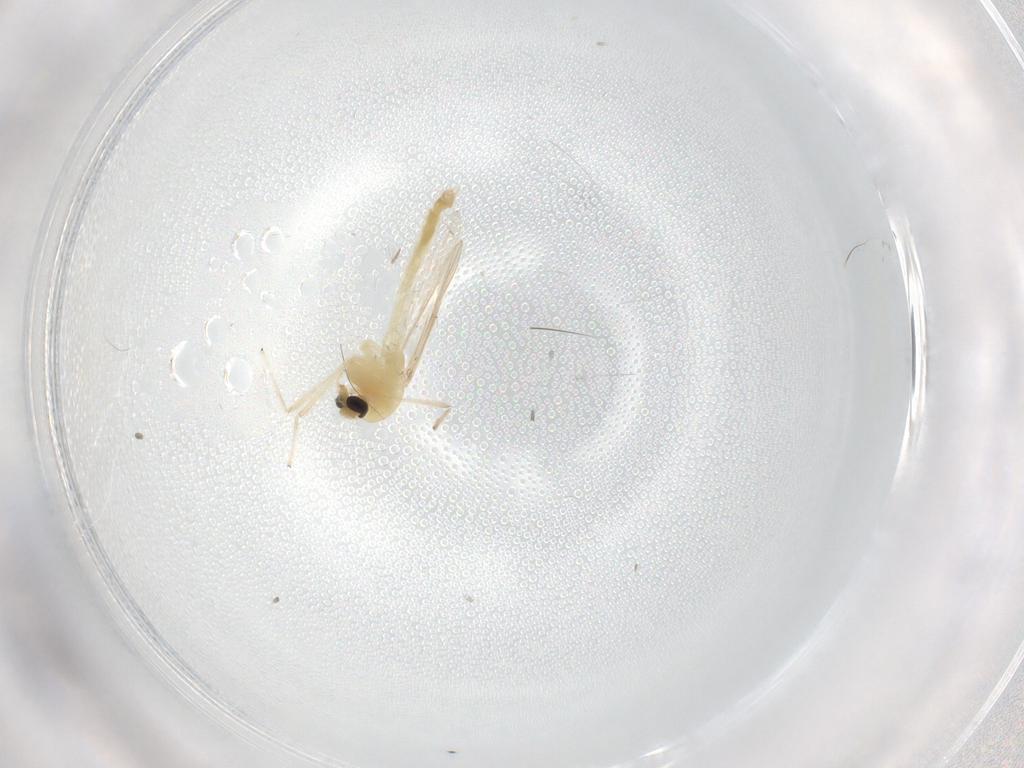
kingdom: Animalia
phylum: Arthropoda
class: Insecta
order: Diptera
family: Chironomidae
